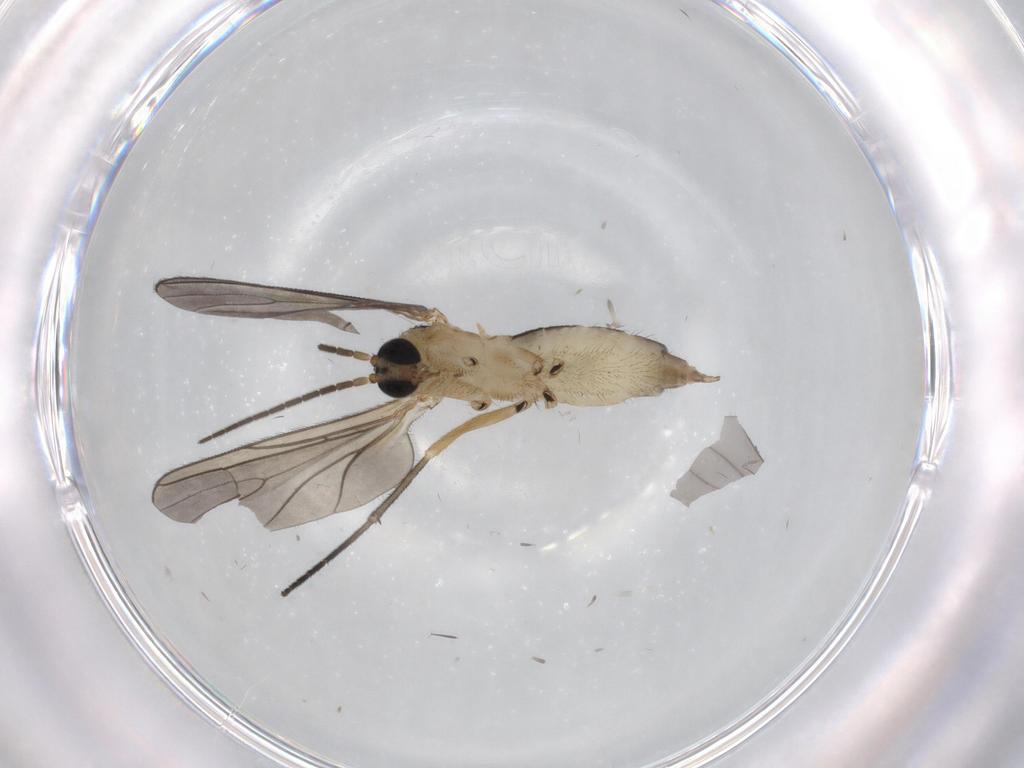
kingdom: Animalia
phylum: Arthropoda
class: Insecta
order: Diptera
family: Sciaridae
